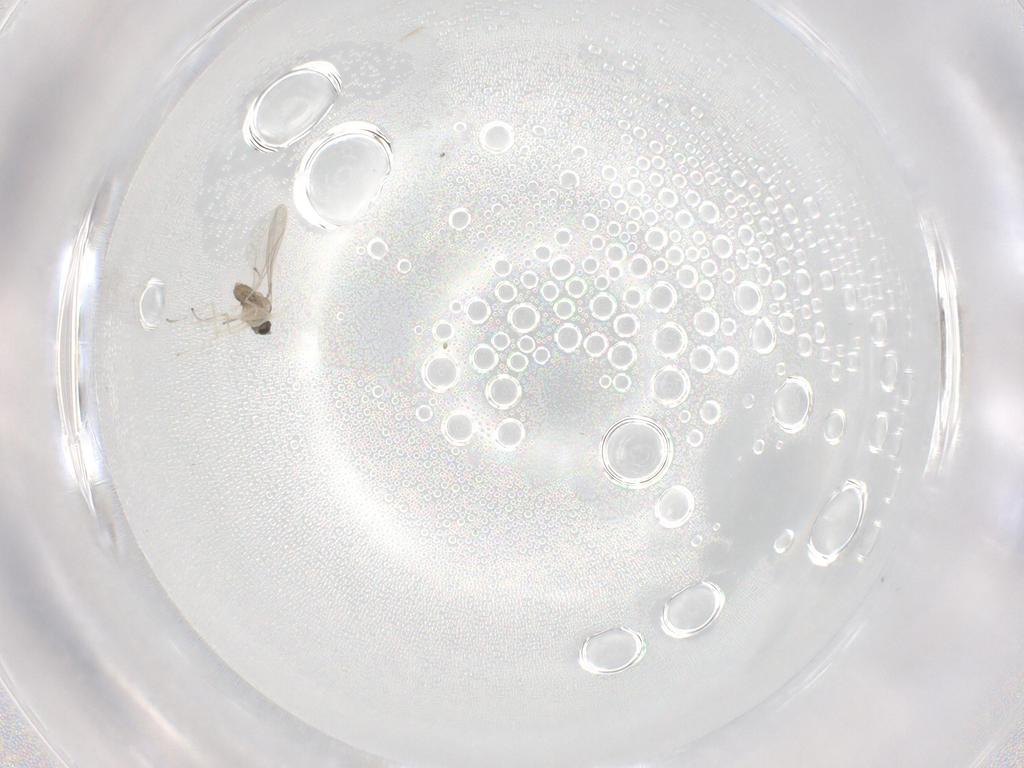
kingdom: Animalia
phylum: Arthropoda
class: Insecta
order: Diptera
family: Cecidomyiidae
